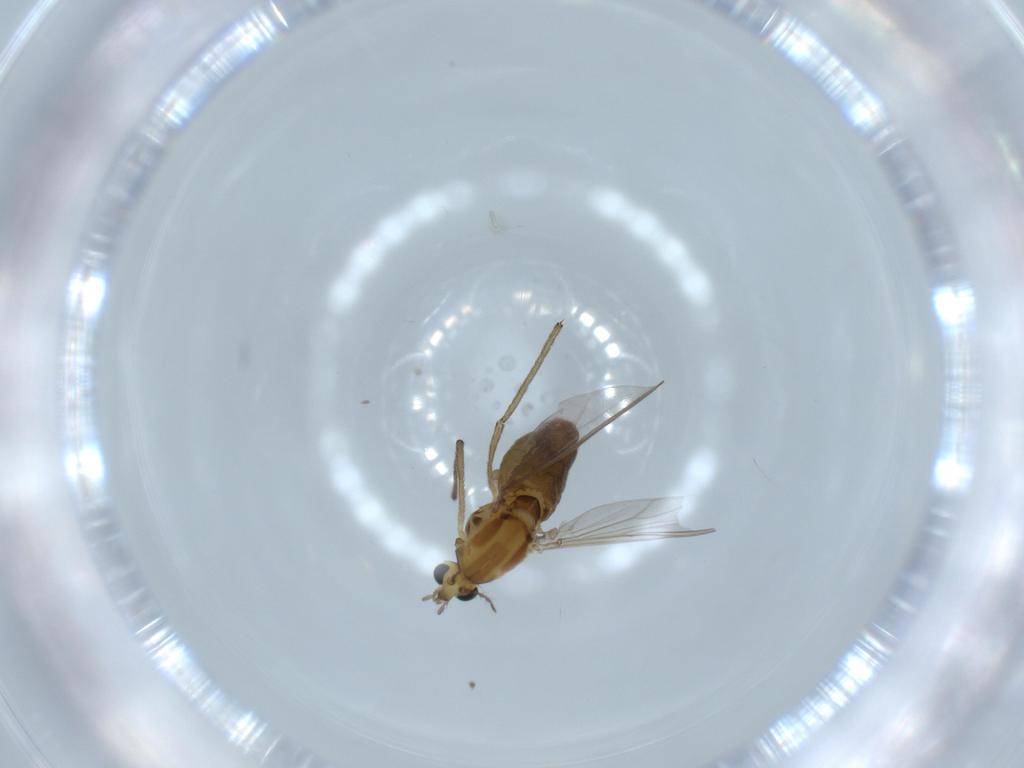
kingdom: Animalia
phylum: Arthropoda
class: Insecta
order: Diptera
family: Chironomidae
